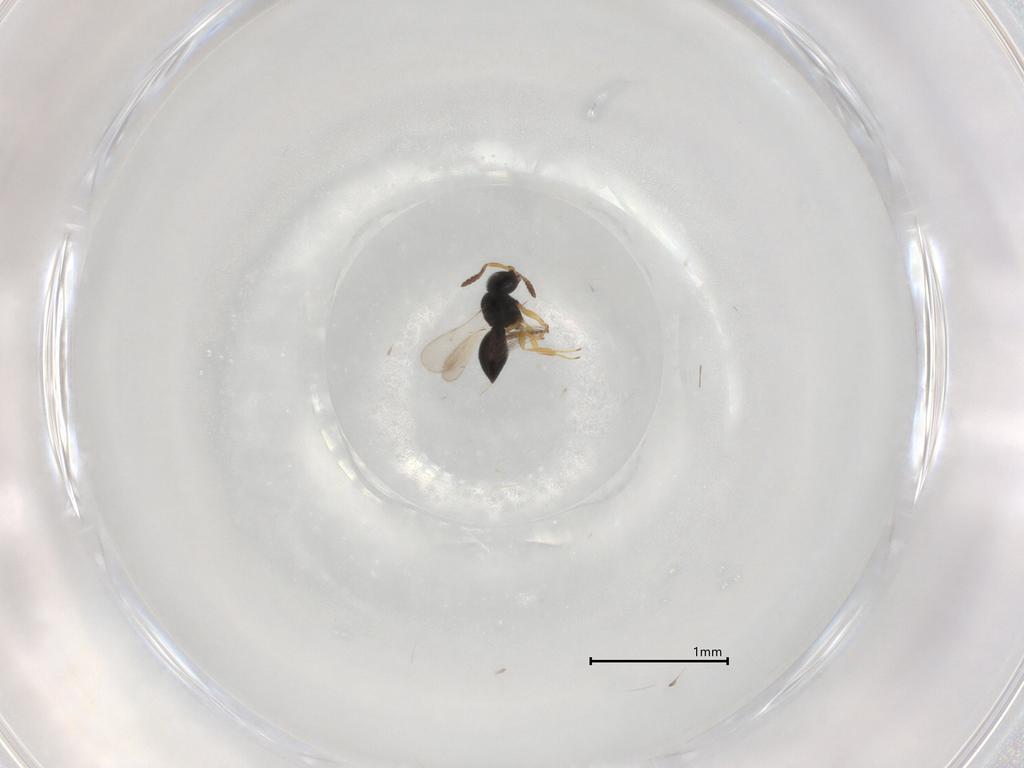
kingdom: Animalia
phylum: Arthropoda
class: Insecta
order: Hymenoptera
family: Scelionidae
